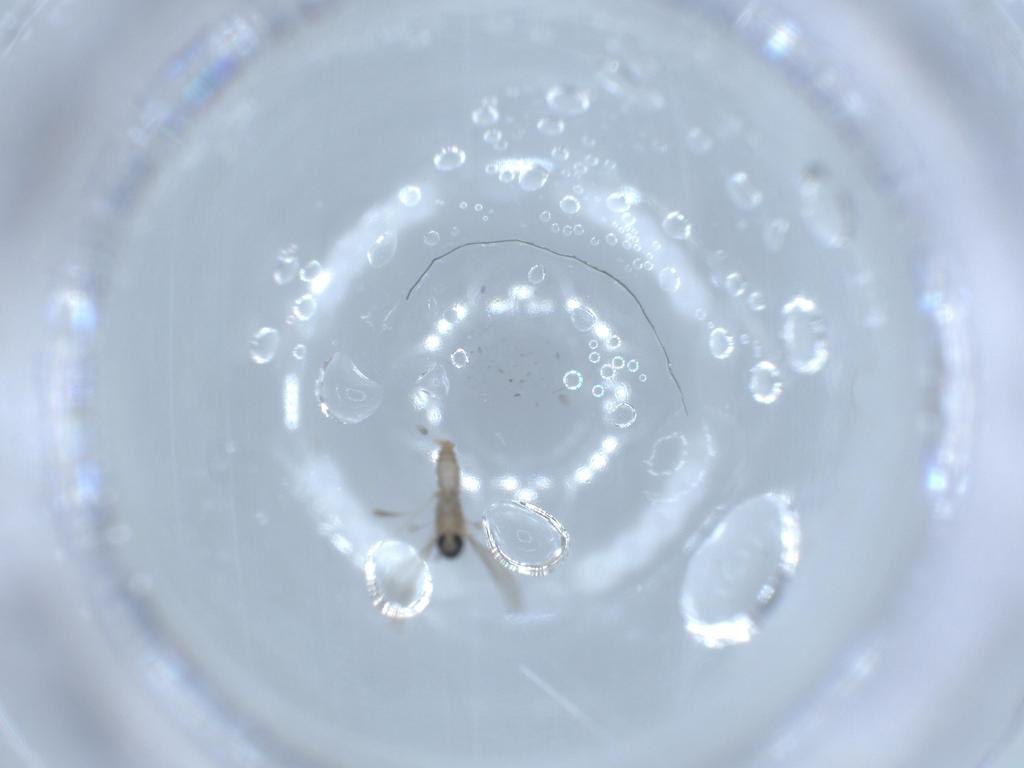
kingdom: Animalia
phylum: Arthropoda
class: Insecta
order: Diptera
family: Cecidomyiidae
